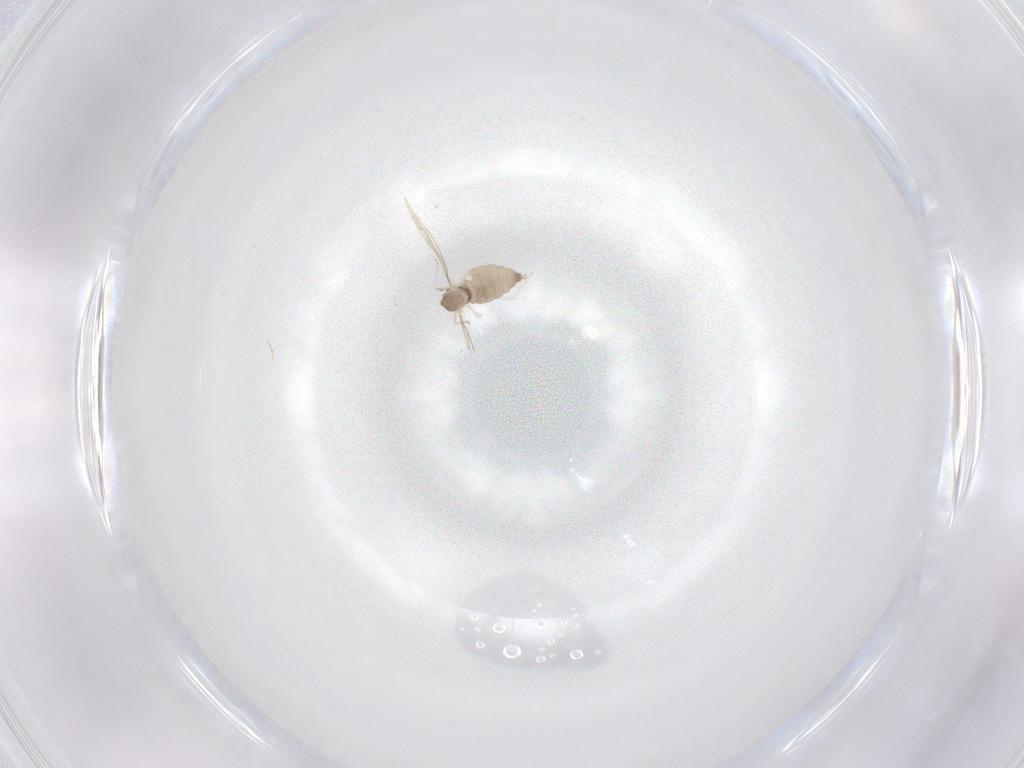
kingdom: Animalia
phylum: Arthropoda
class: Insecta
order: Diptera
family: Cecidomyiidae
